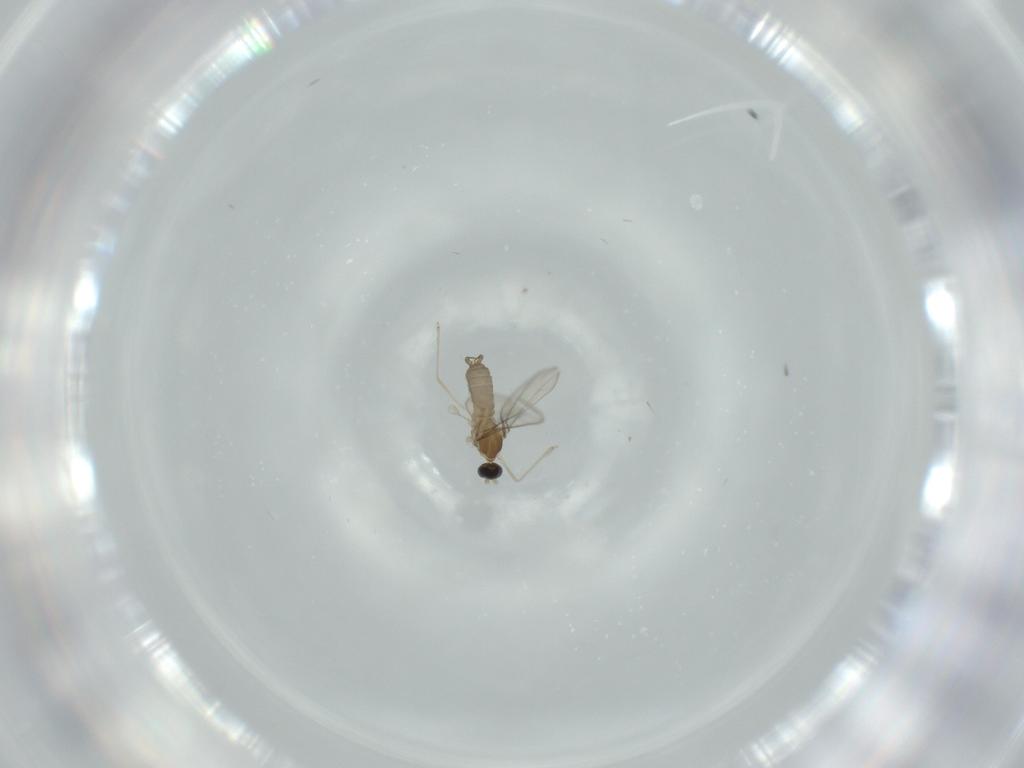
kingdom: Animalia
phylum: Arthropoda
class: Insecta
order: Diptera
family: Cecidomyiidae
